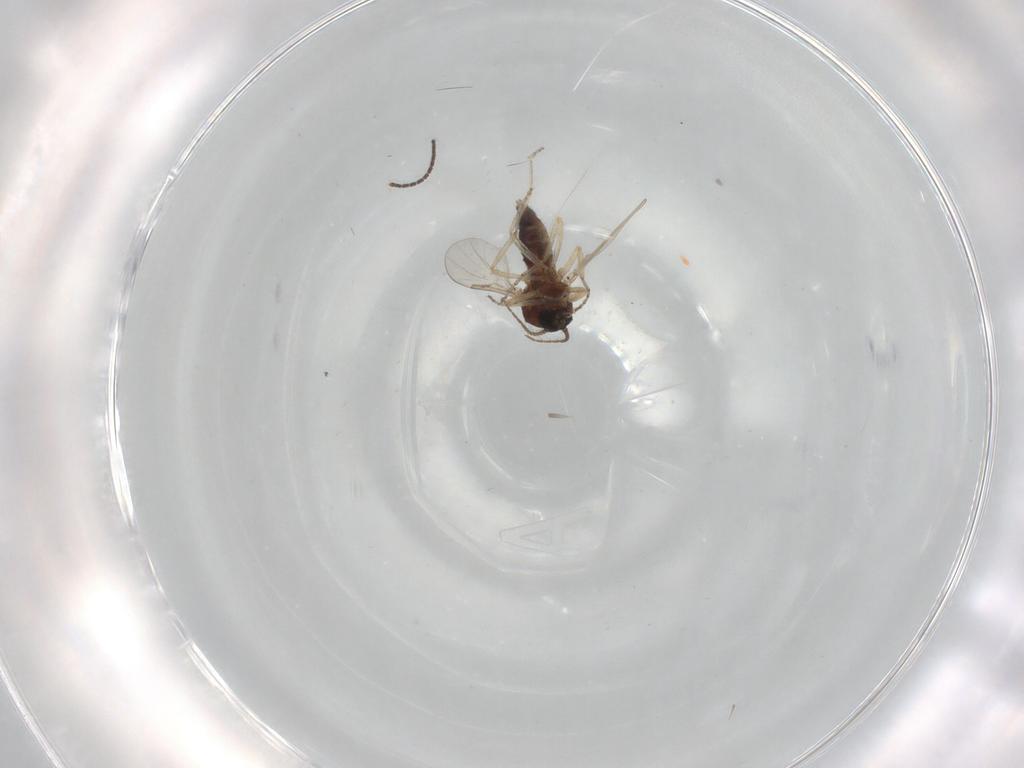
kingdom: Animalia
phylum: Arthropoda
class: Insecta
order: Diptera
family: Ceratopogonidae
